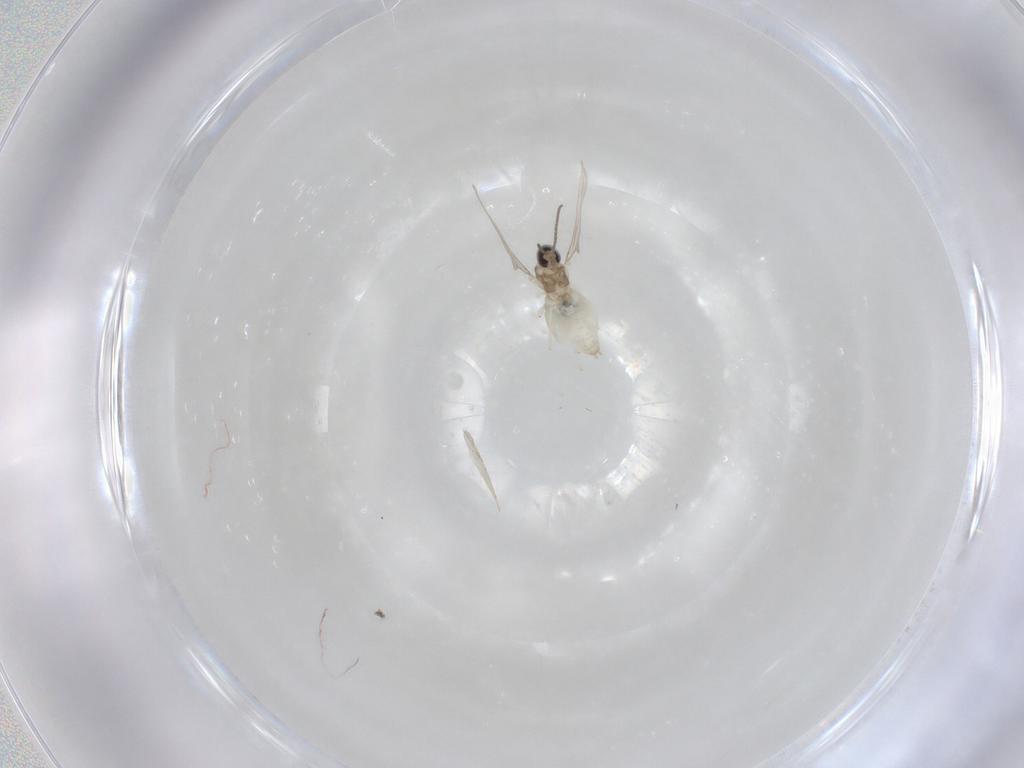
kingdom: Animalia
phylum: Arthropoda
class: Insecta
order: Diptera
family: Cecidomyiidae
